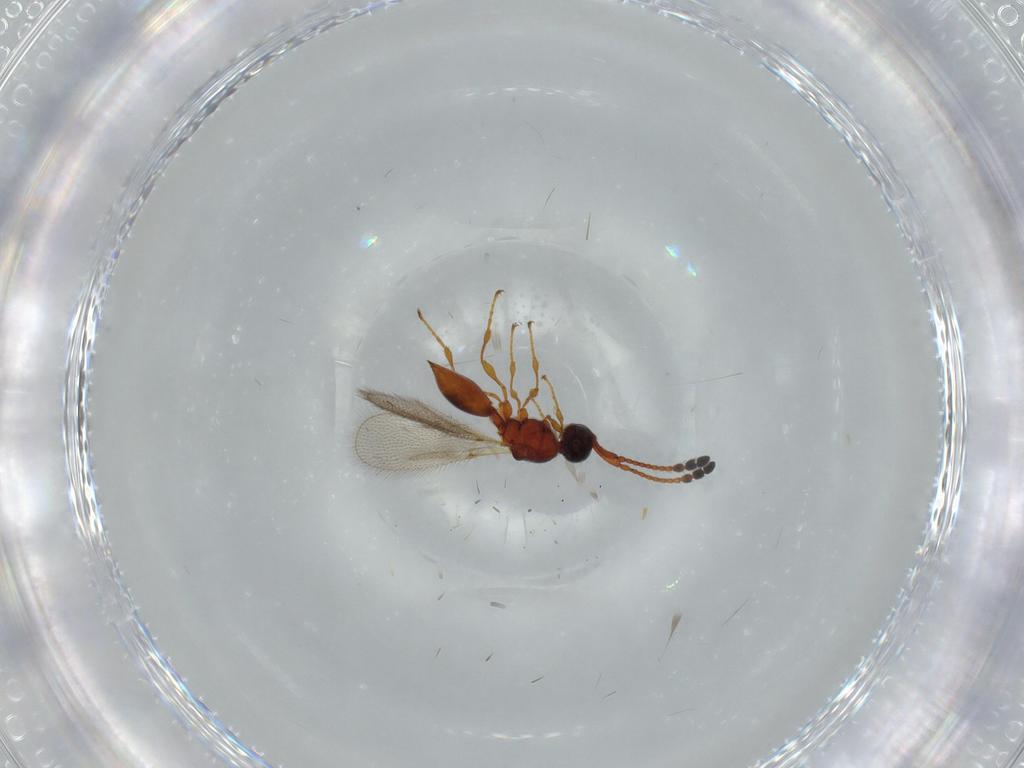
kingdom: Animalia
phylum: Arthropoda
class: Insecta
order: Hymenoptera
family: Diapriidae
